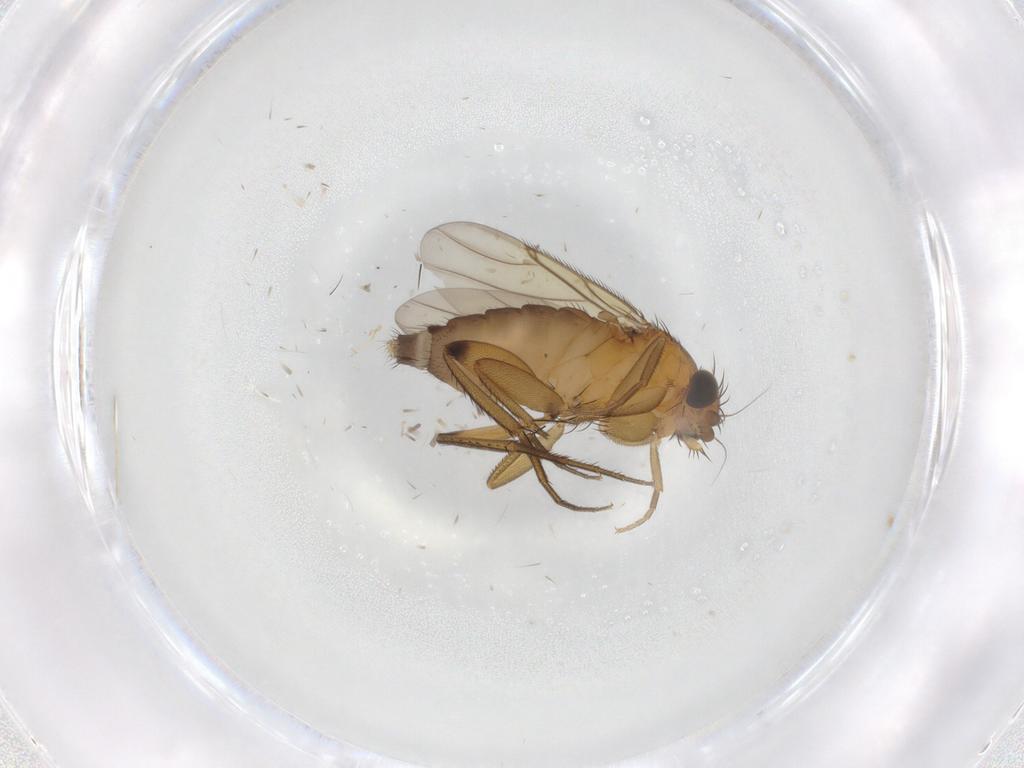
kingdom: Animalia
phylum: Arthropoda
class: Insecta
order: Diptera
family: Phoridae
